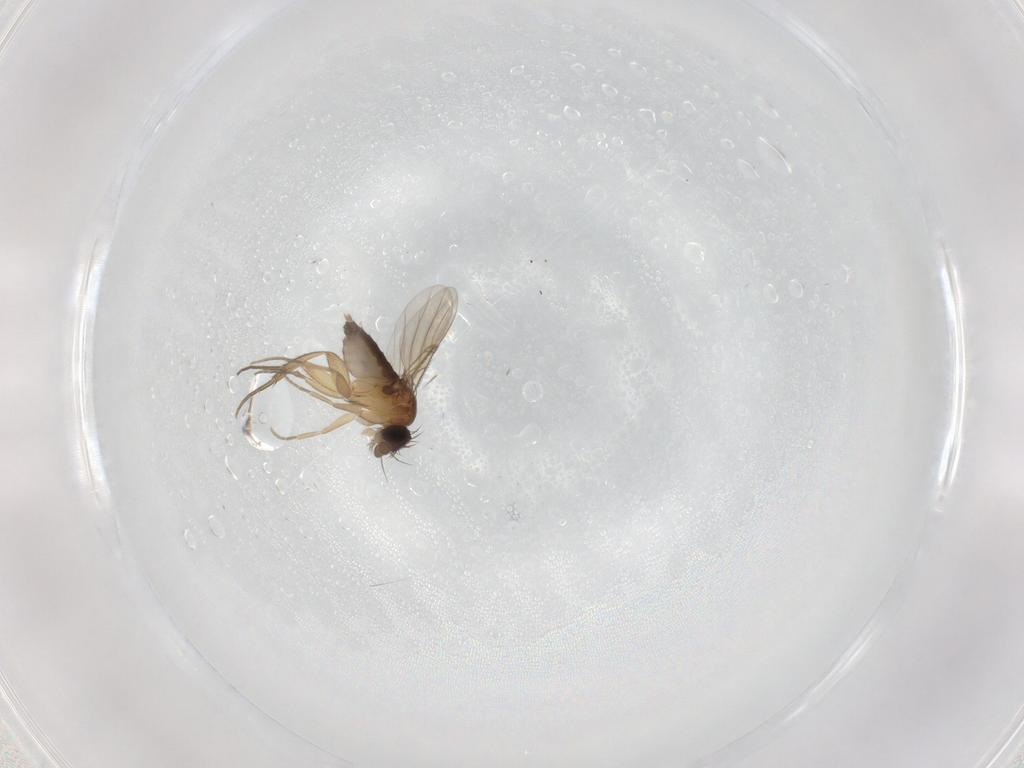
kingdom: Animalia
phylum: Arthropoda
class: Insecta
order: Diptera
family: Phoridae
